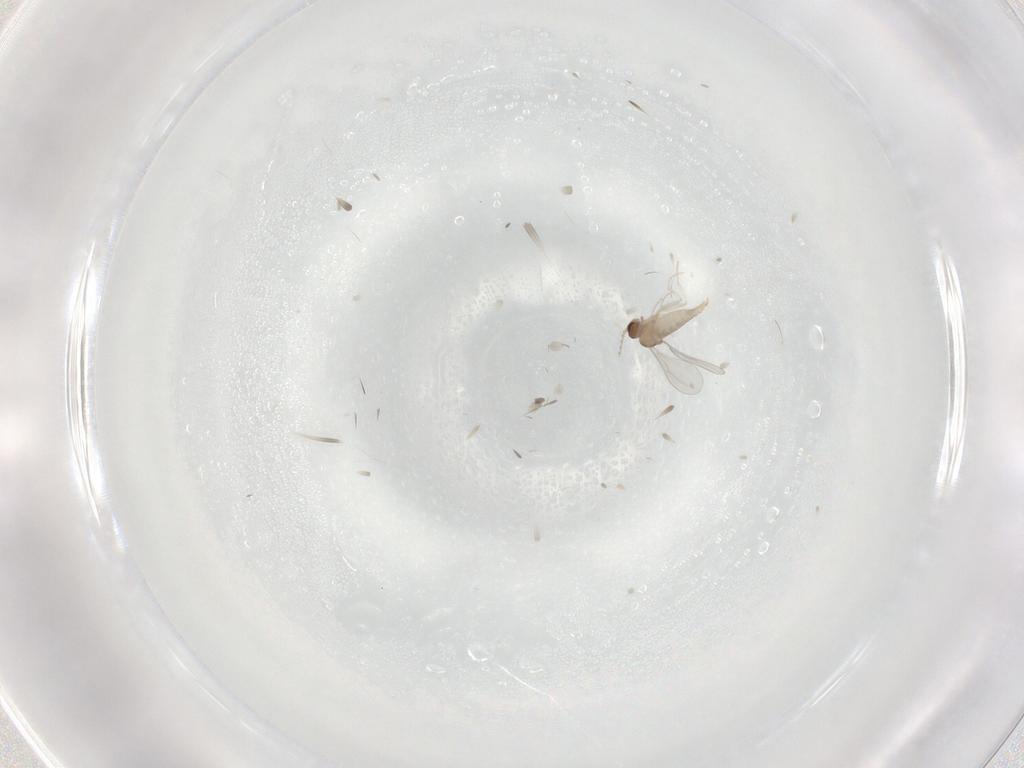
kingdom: Animalia
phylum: Arthropoda
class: Insecta
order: Diptera
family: Cecidomyiidae
